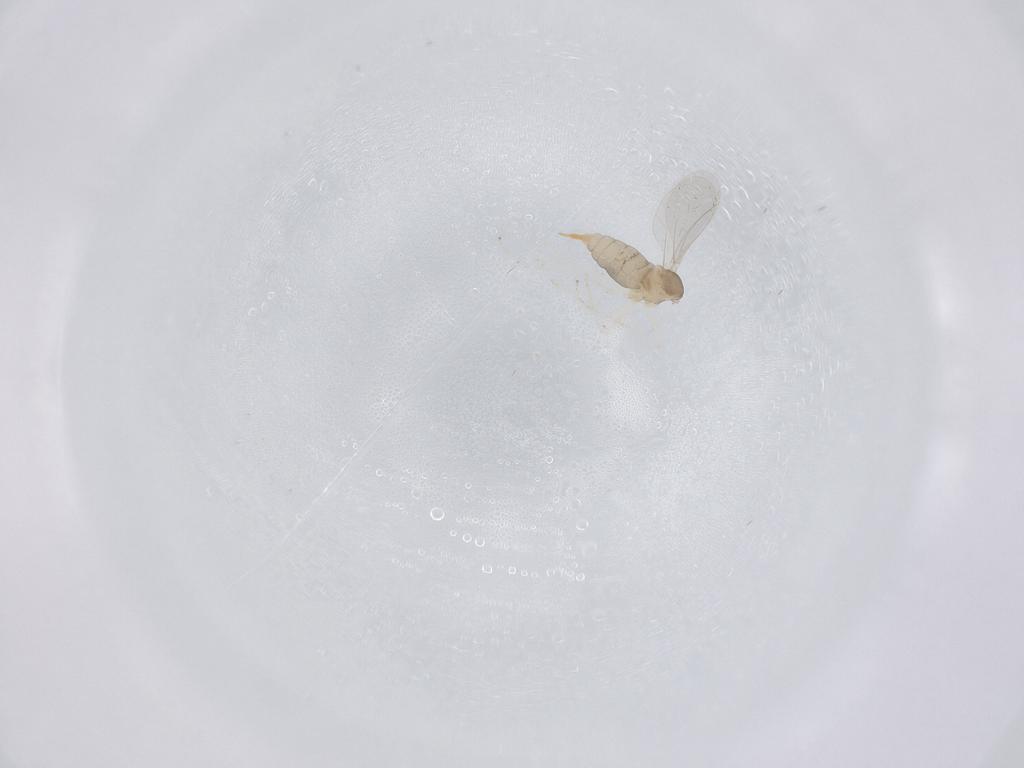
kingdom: Animalia
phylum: Arthropoda
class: Insecta
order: Diptera
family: Cecidomyiidae
